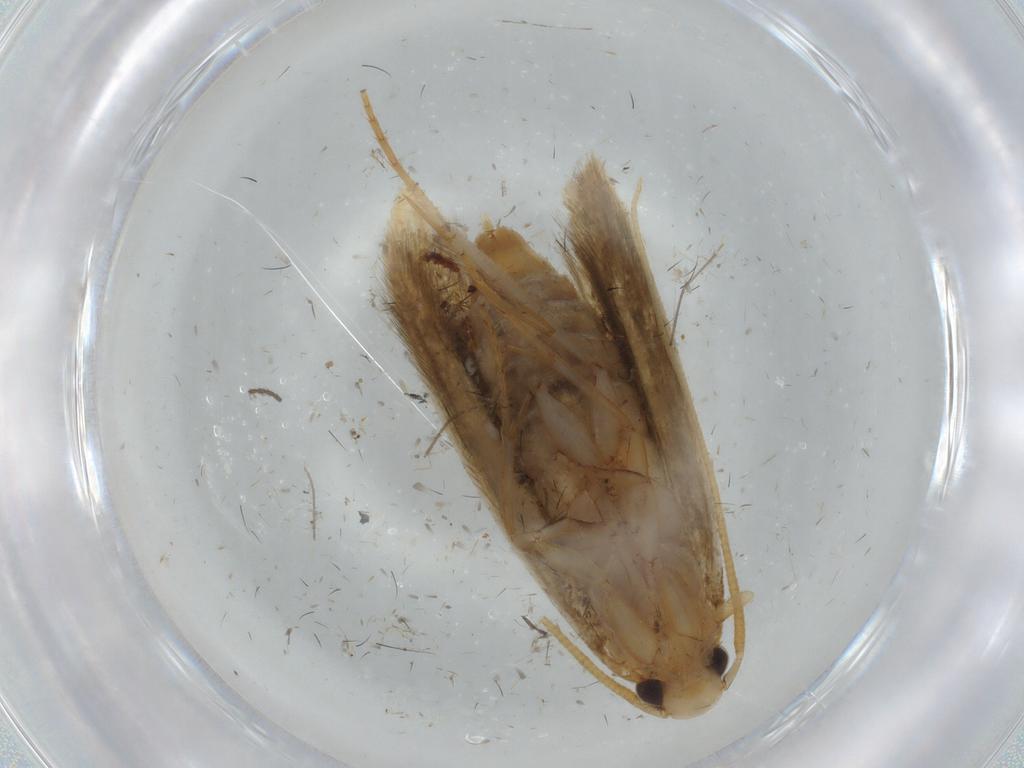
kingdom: Animalia
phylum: Arthropoda
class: Insecta
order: Lepidoptera
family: Tineidae
